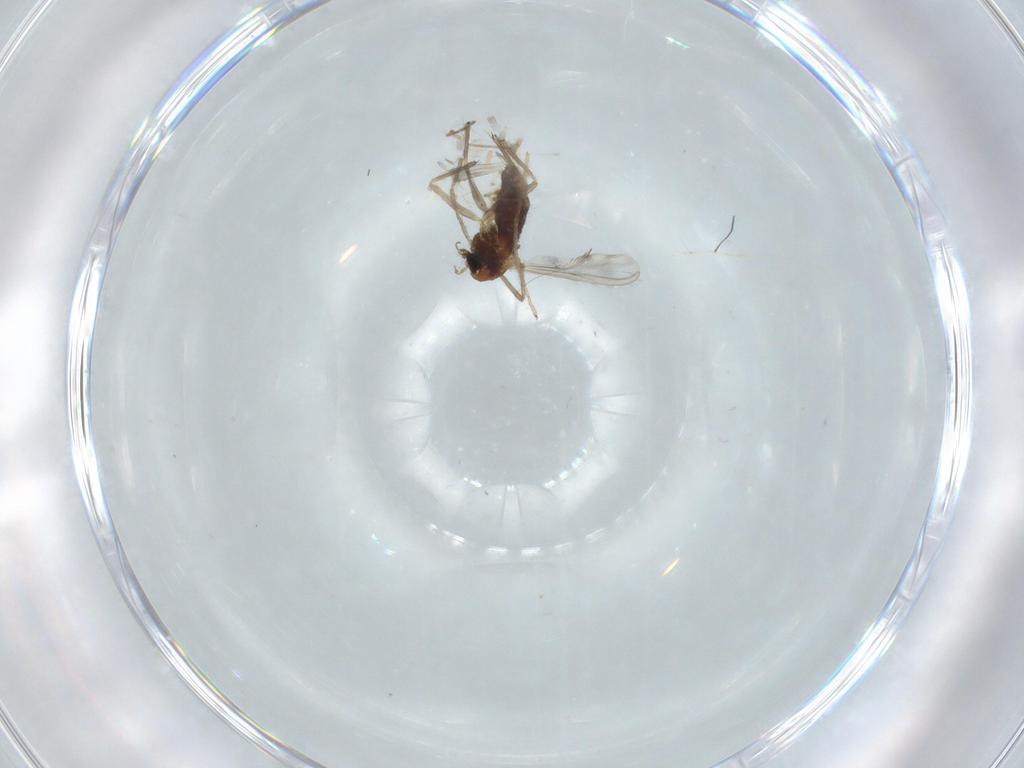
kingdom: Animalia
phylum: Arthropoda
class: Insecta
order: Diptera
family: Dolichopodidae
